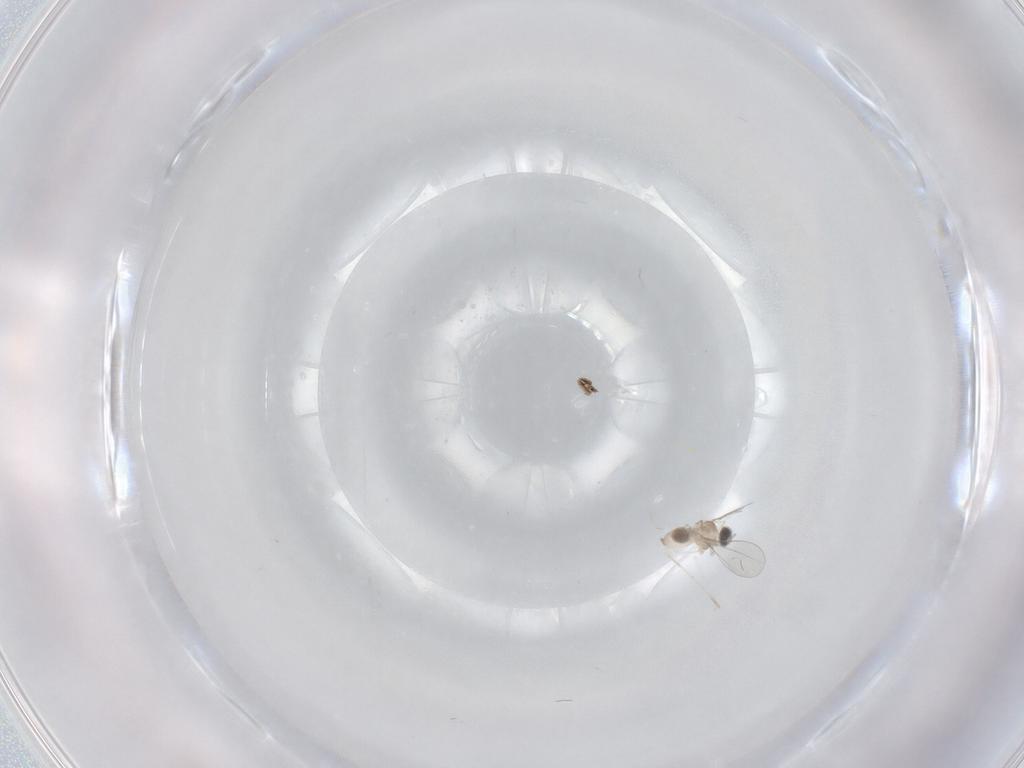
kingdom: Animalia
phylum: Arthropoda
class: Insecta
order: Diptera
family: Cecidomyiidae
